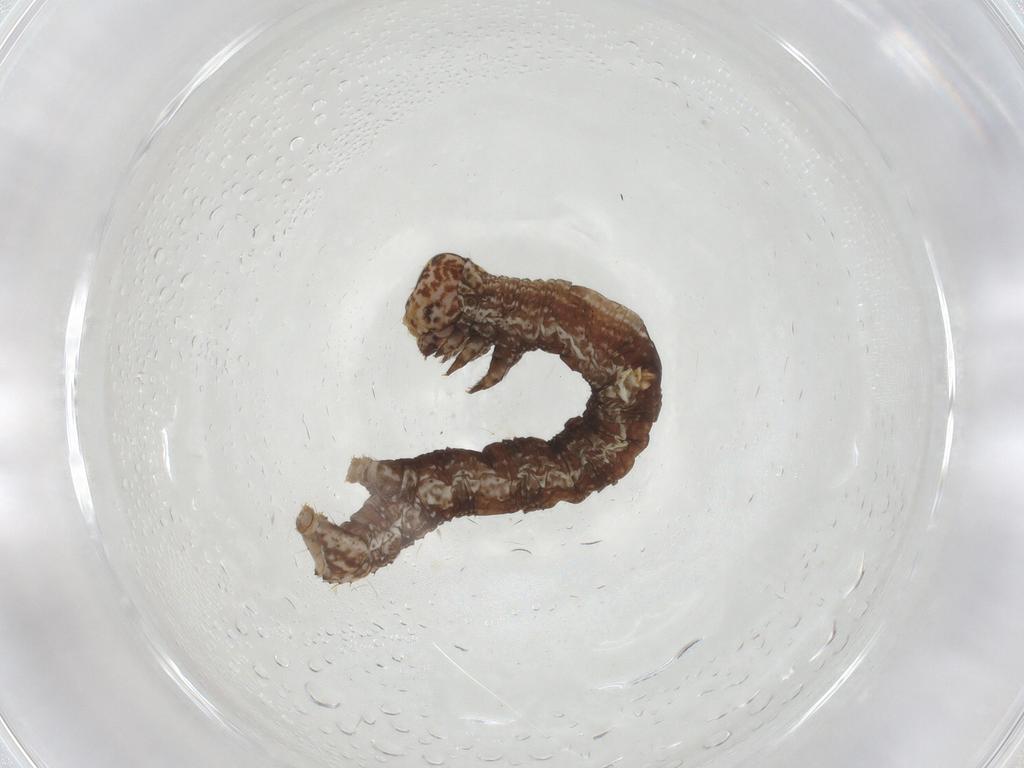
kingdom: Animalia
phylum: Arthropoda
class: Insecta
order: Lepidoptera
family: Geometridae
